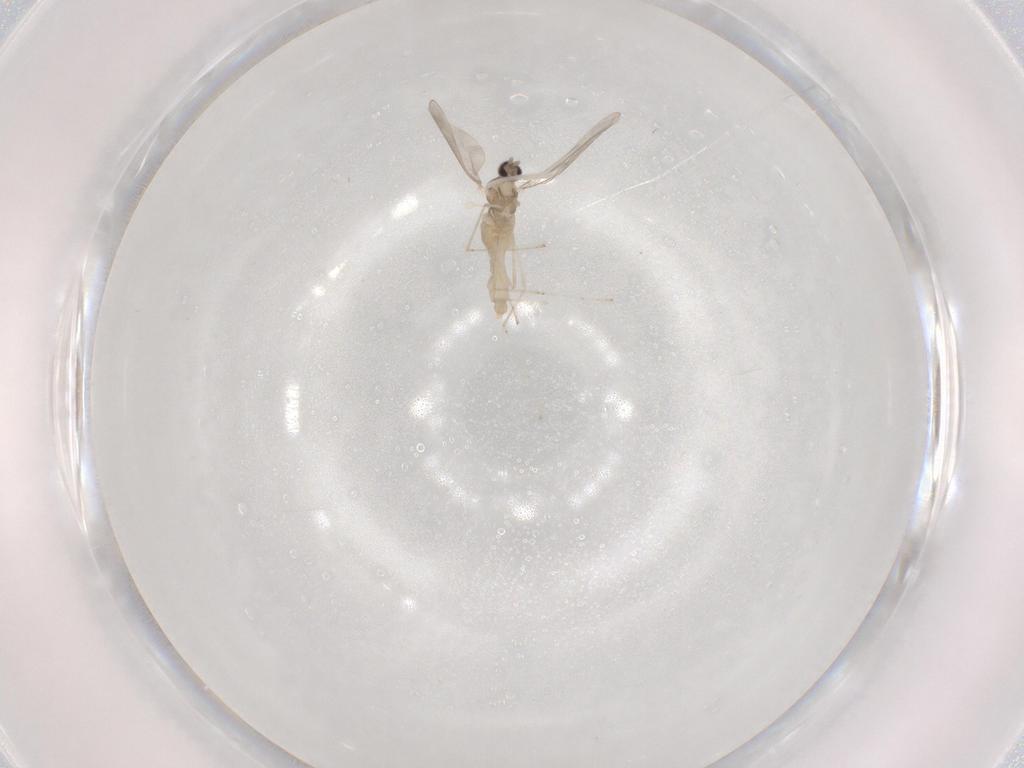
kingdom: Animalia
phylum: Arthropoda
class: Insecta
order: Diptera
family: Cecidomyiidae
